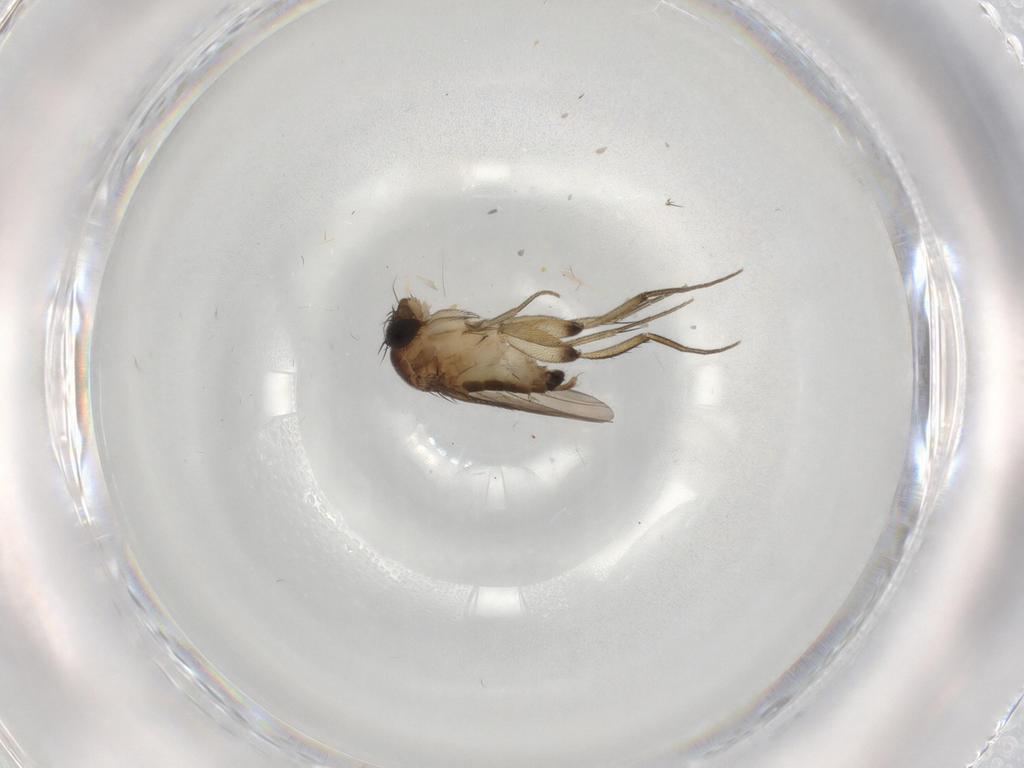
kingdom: Animalia
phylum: Arthropoda
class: Insecta
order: Diptera
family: Phoridae
